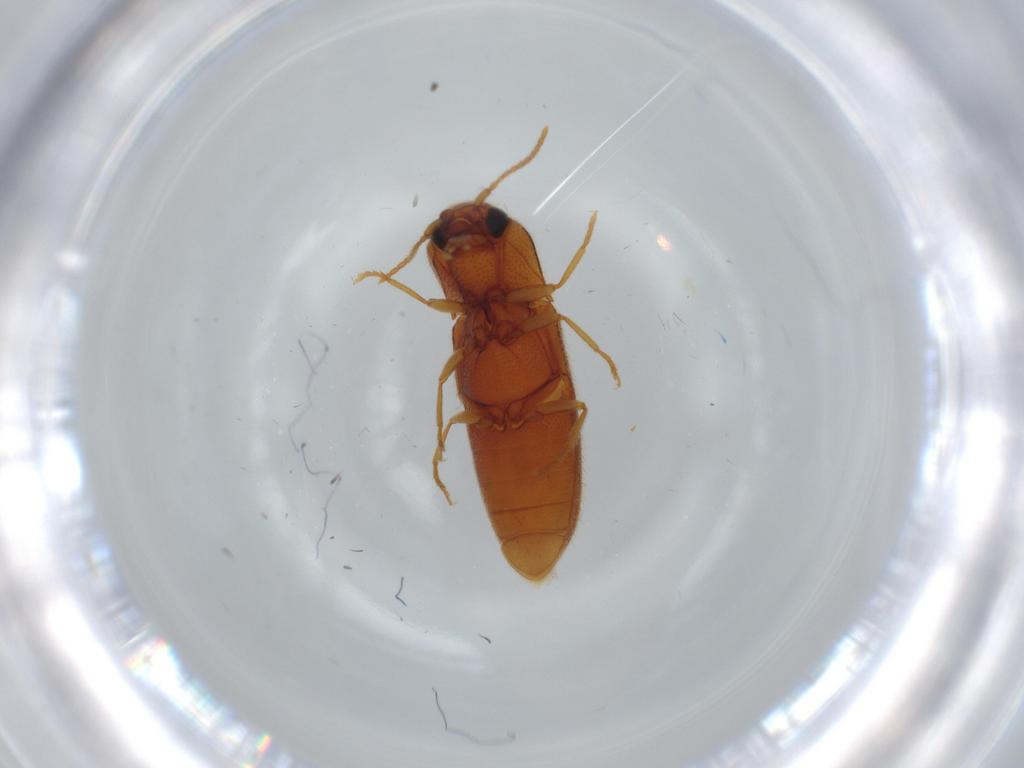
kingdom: Animalia
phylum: Arthropoda
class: Insecta
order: Coleoptera
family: Elateridae
